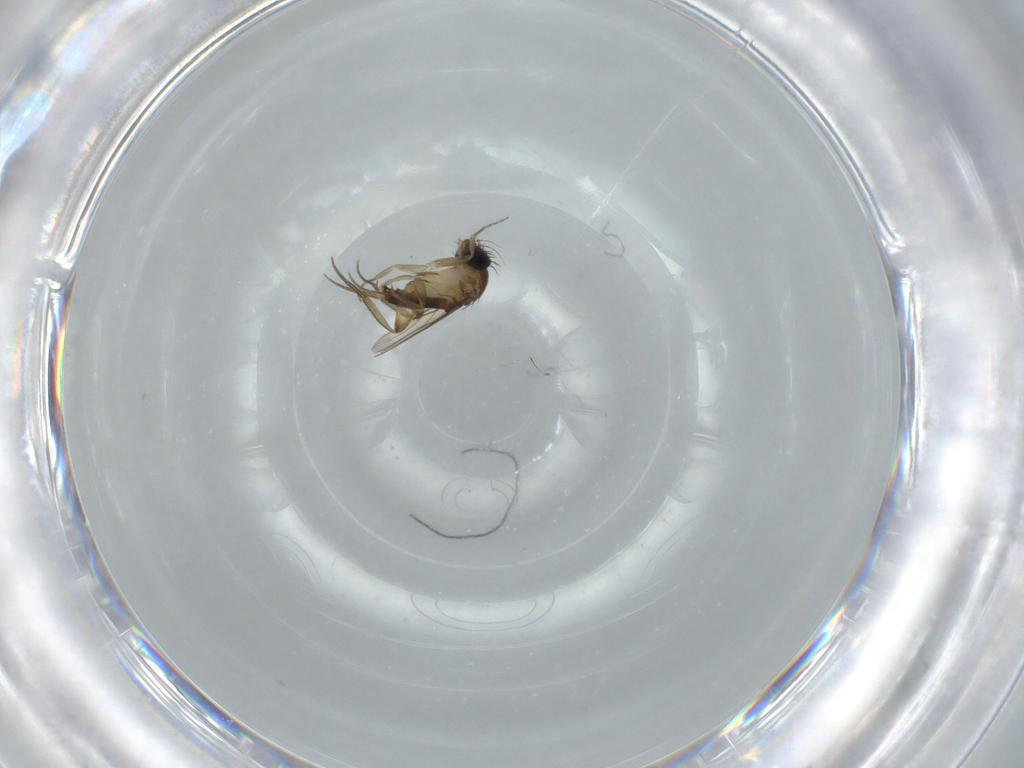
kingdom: Animalia
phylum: Arthropoda
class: Insecta
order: Diptera
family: Phoridae
